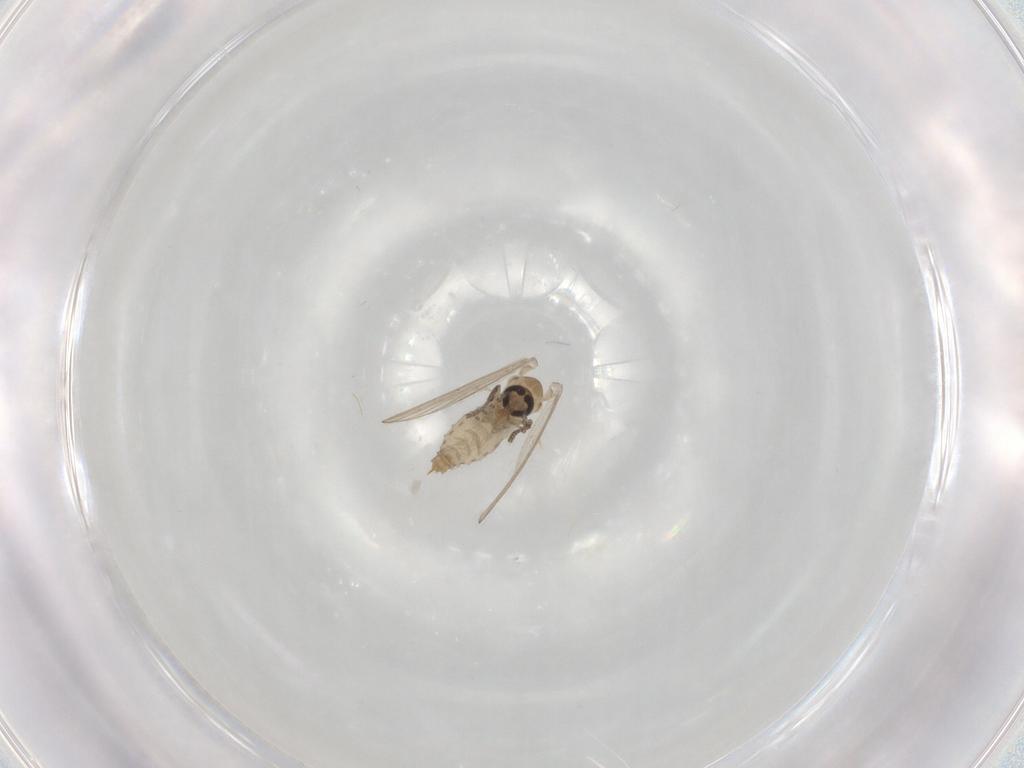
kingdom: Animalia
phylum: Arthropoda
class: Insecta
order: Diptera
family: Psychodidae
